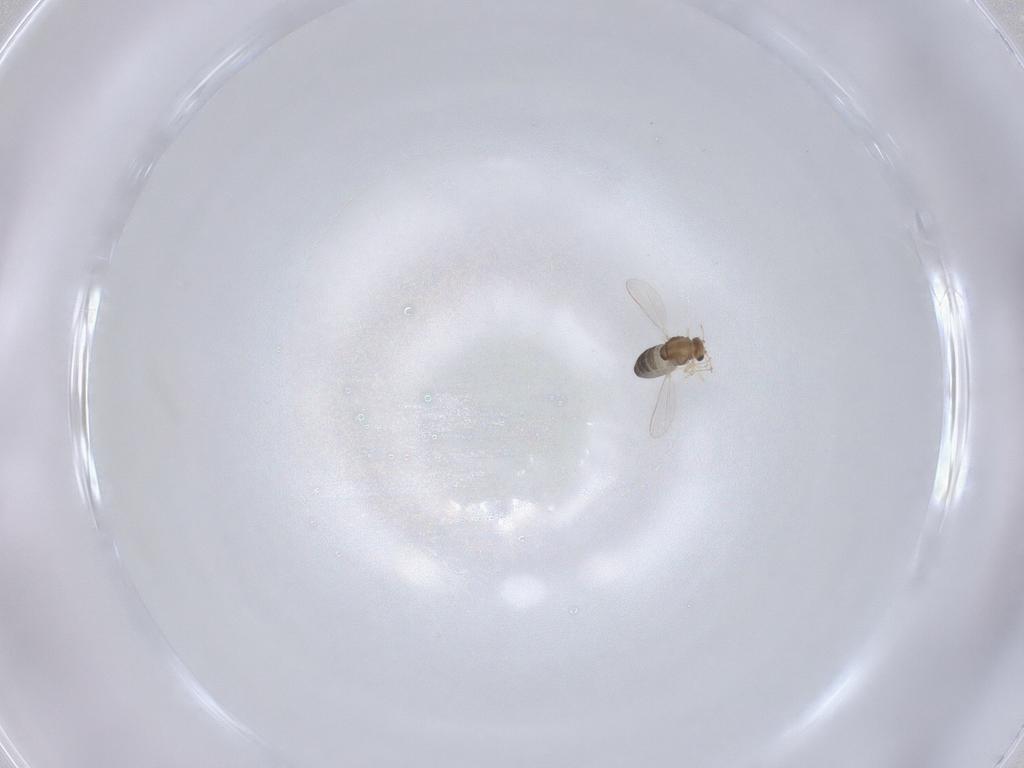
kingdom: Animalia
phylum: Arthropoda
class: Insecta
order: Diptera
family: Chironomidae
